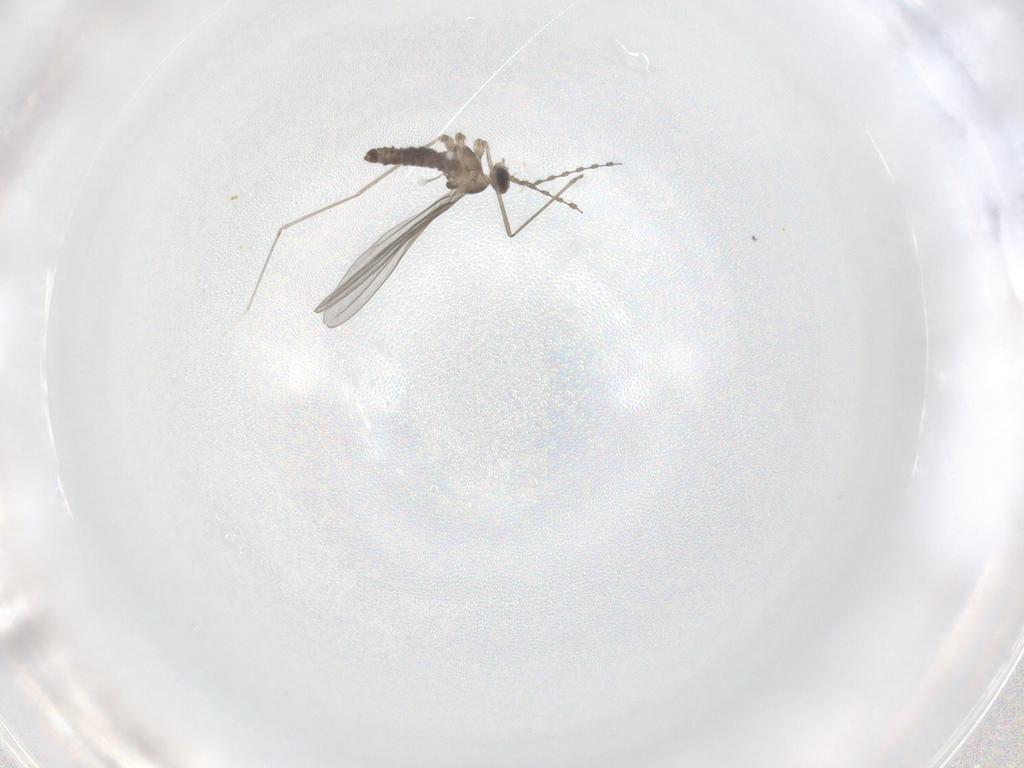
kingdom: Animalia
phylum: Arthropoda
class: Insecta
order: Diptera
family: Cecidomyiidae
